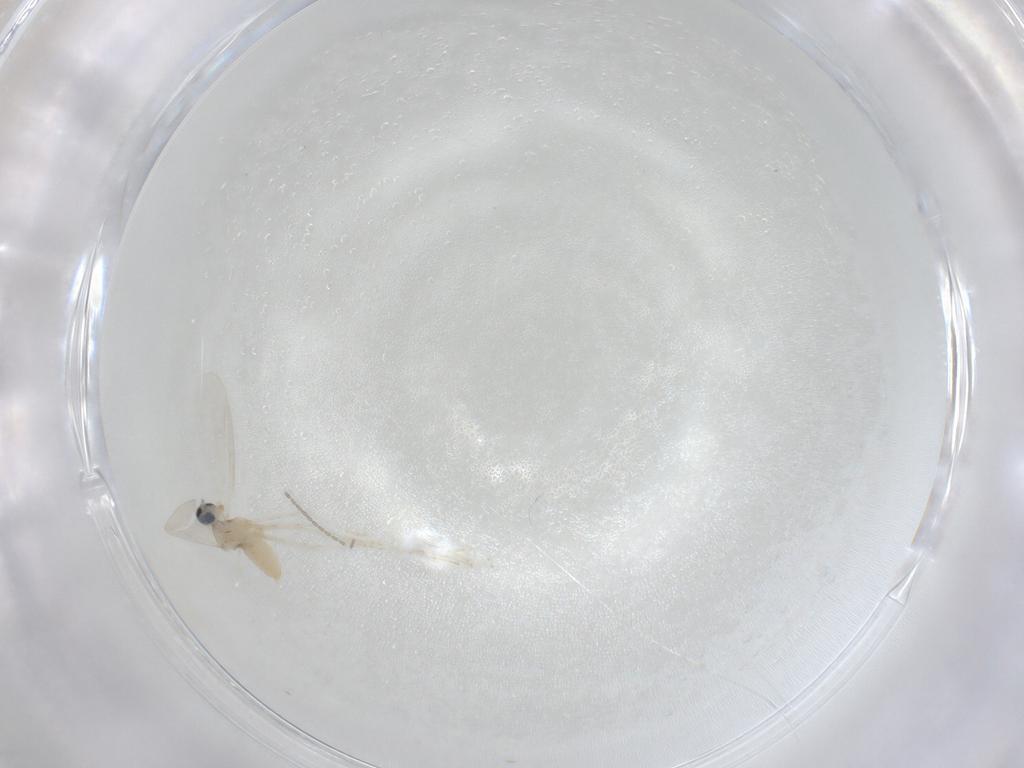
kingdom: Animalia
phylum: Arthropoda
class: Insecta
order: Diptera
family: Cecidomyiidae
